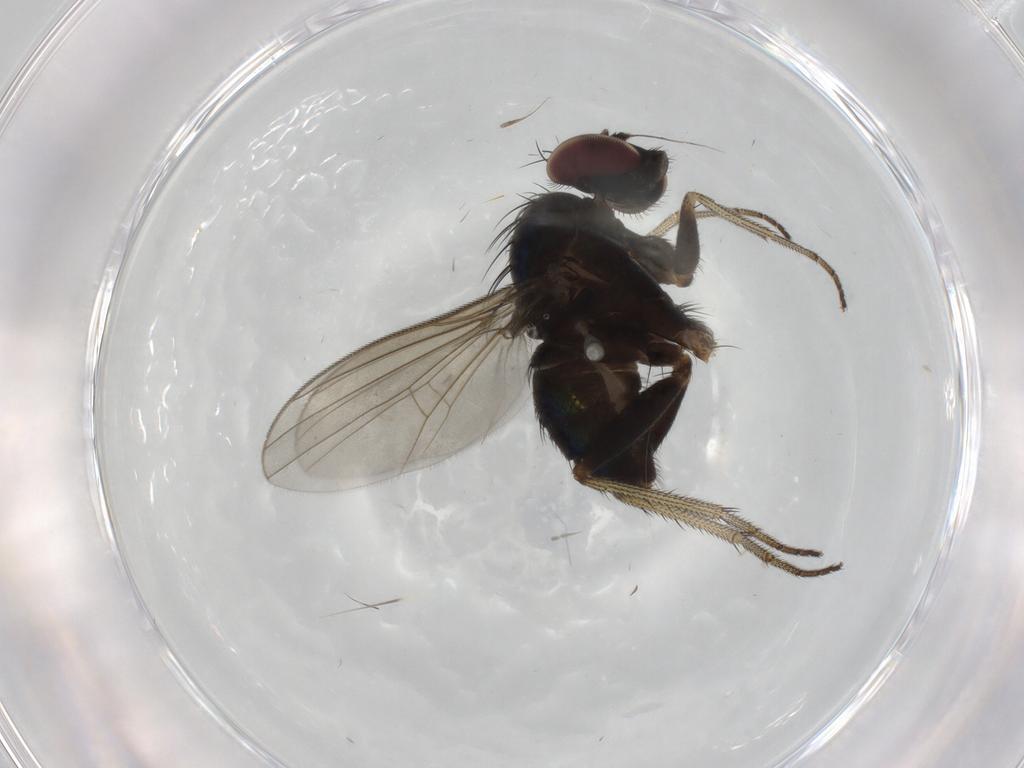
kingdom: Animalia
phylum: Arthropoda
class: Insecta
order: Diptera
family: Dolichopodidae
